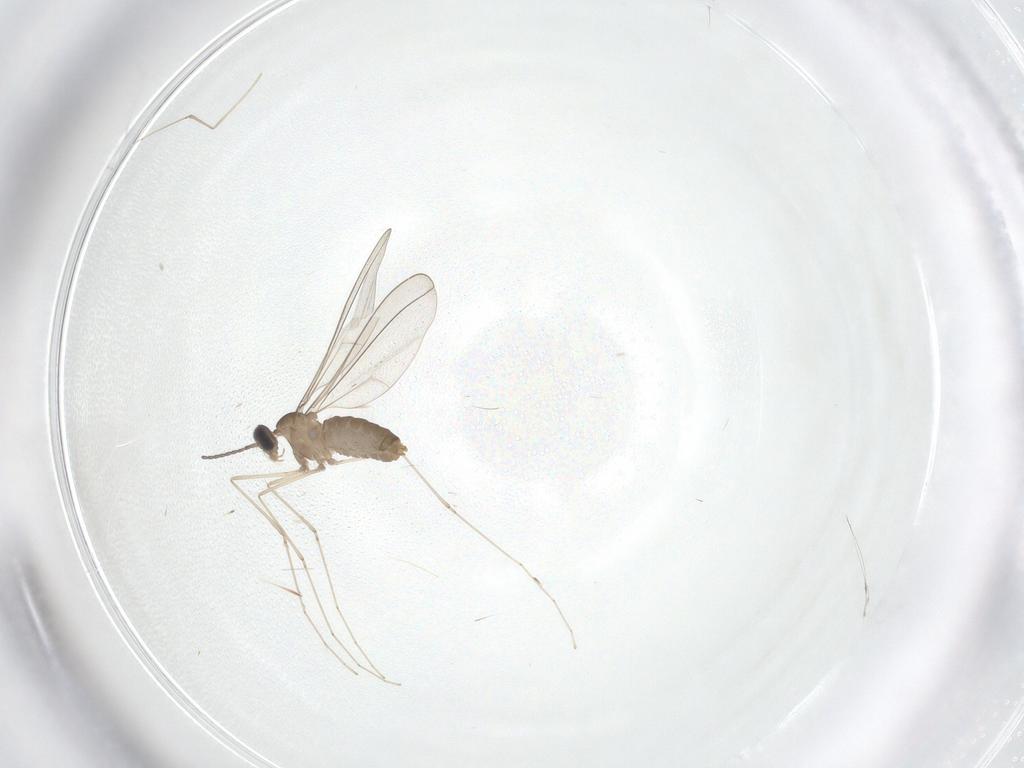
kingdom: Animalia
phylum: Arthropoda
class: Insecta
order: Diptera
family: Cecidomyiidae
